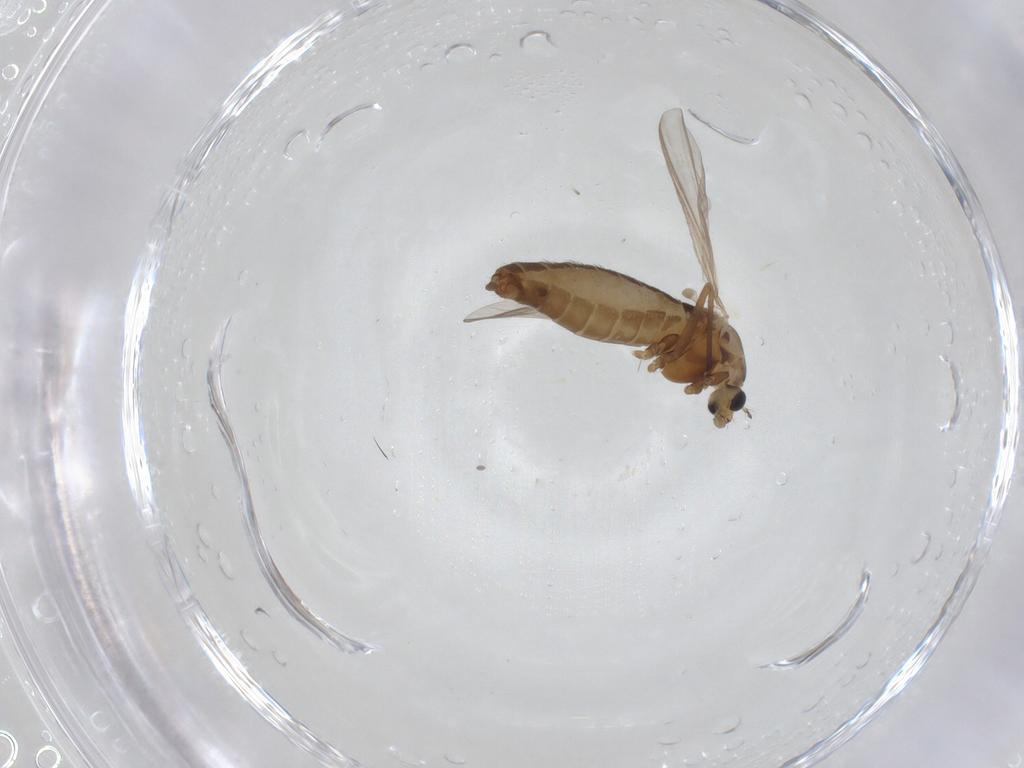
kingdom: Animalia
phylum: Arthropoda
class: Insecta
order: Diptera
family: Chironomidae
